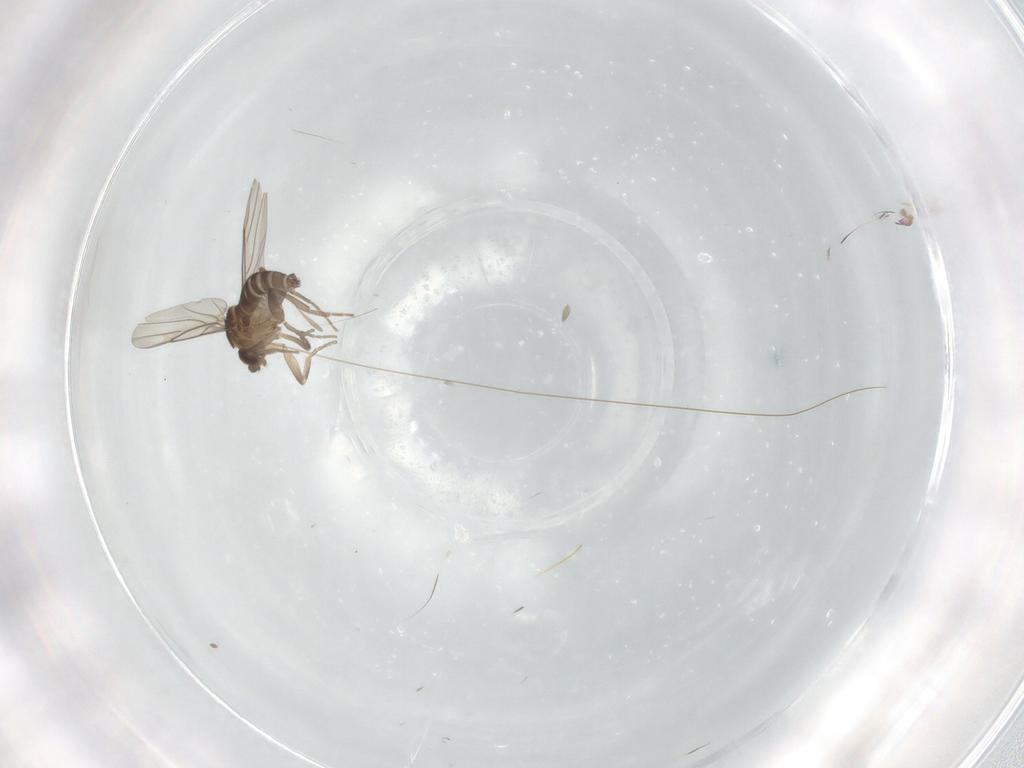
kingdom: Animalia
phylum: Arthropoda
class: Insecta
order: Diptera
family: Phoridae
